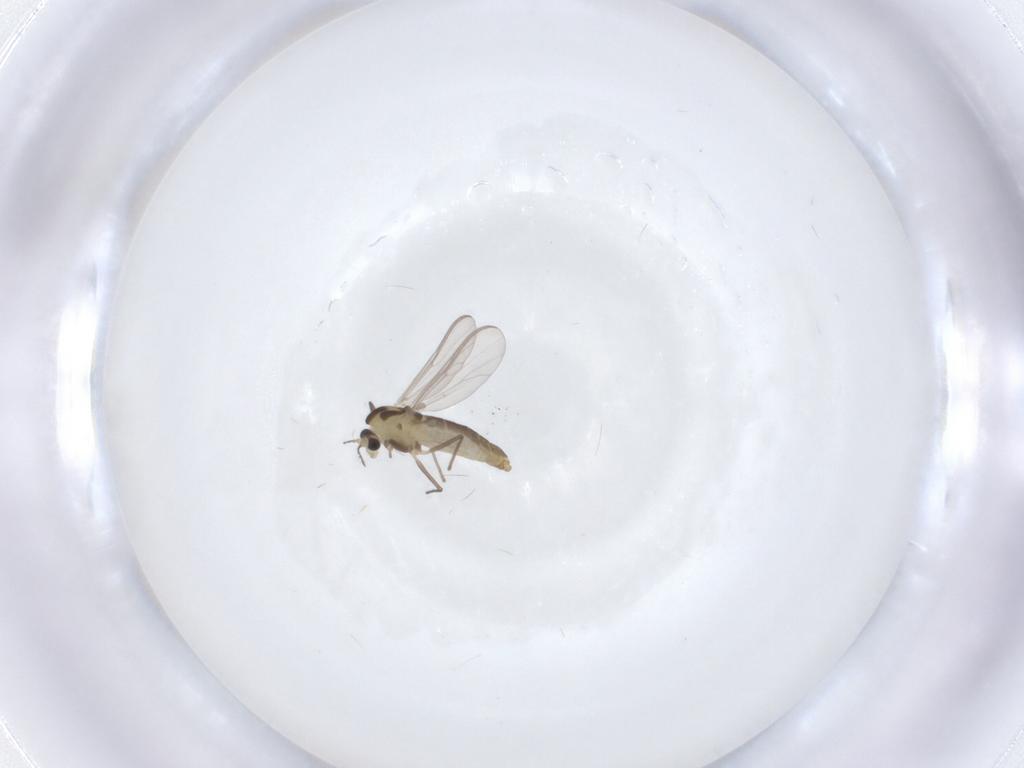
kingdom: Animalia
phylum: Arthropoda
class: Insecta
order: Diptera
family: Chironomidae
